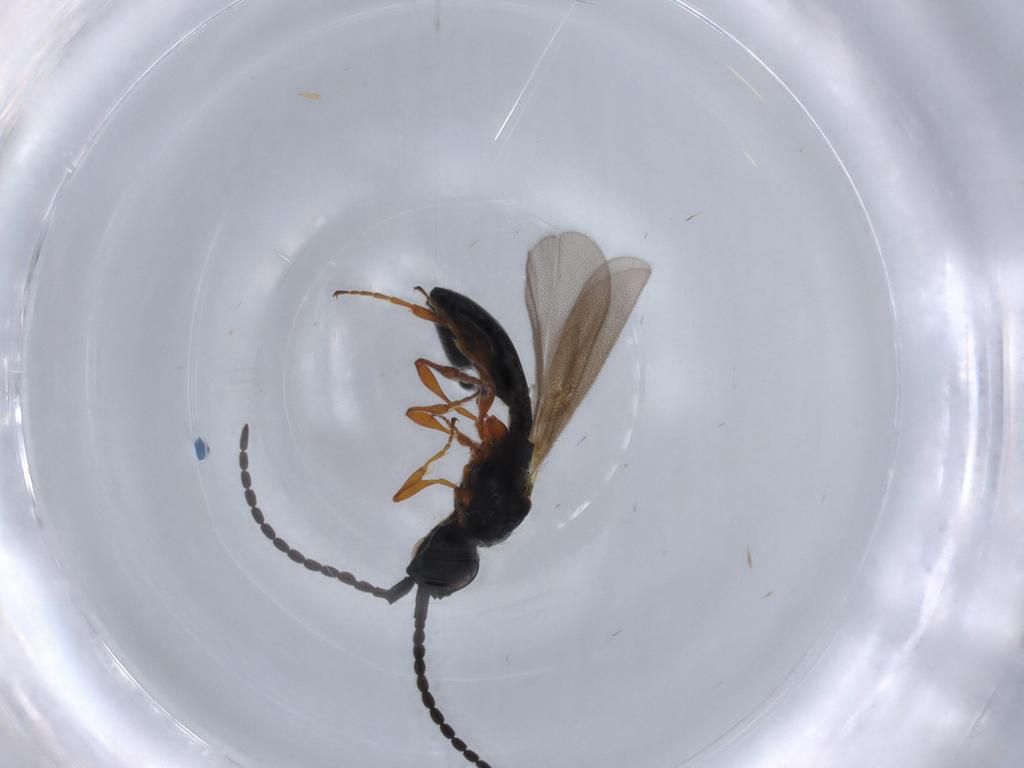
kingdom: Animalia
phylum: Arthropoda
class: Insecta
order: Hymenoptera
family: Diapriidae
